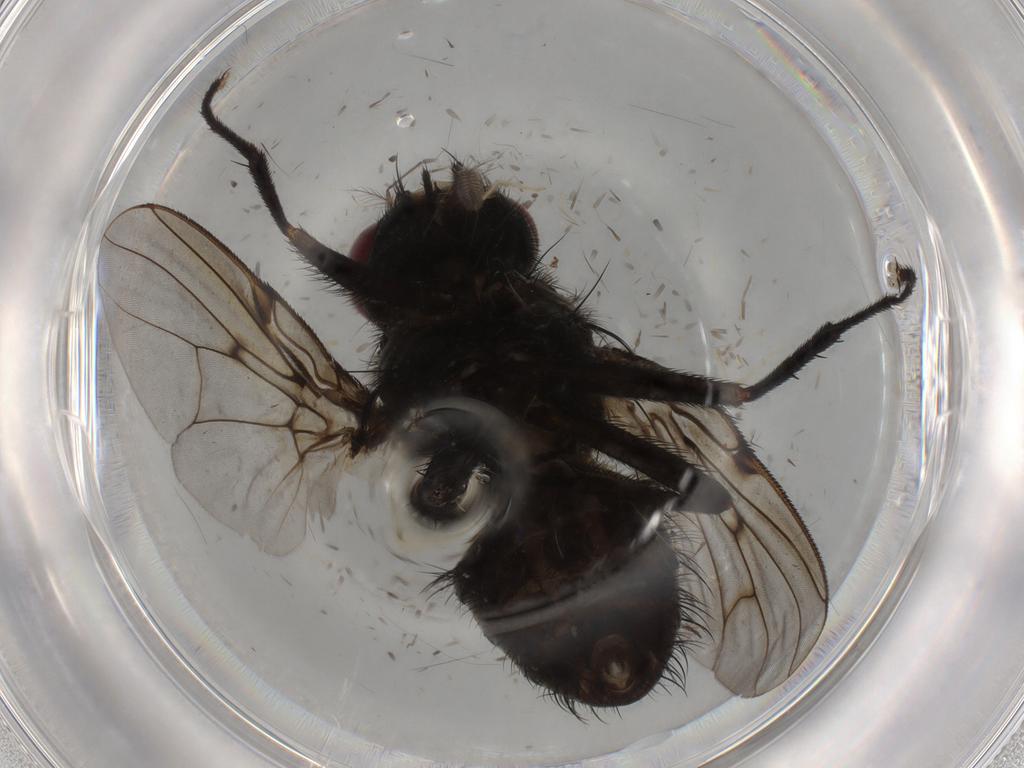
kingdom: Animalia
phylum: Arthropoda
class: Insecta
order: Diptera
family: Muscidae
